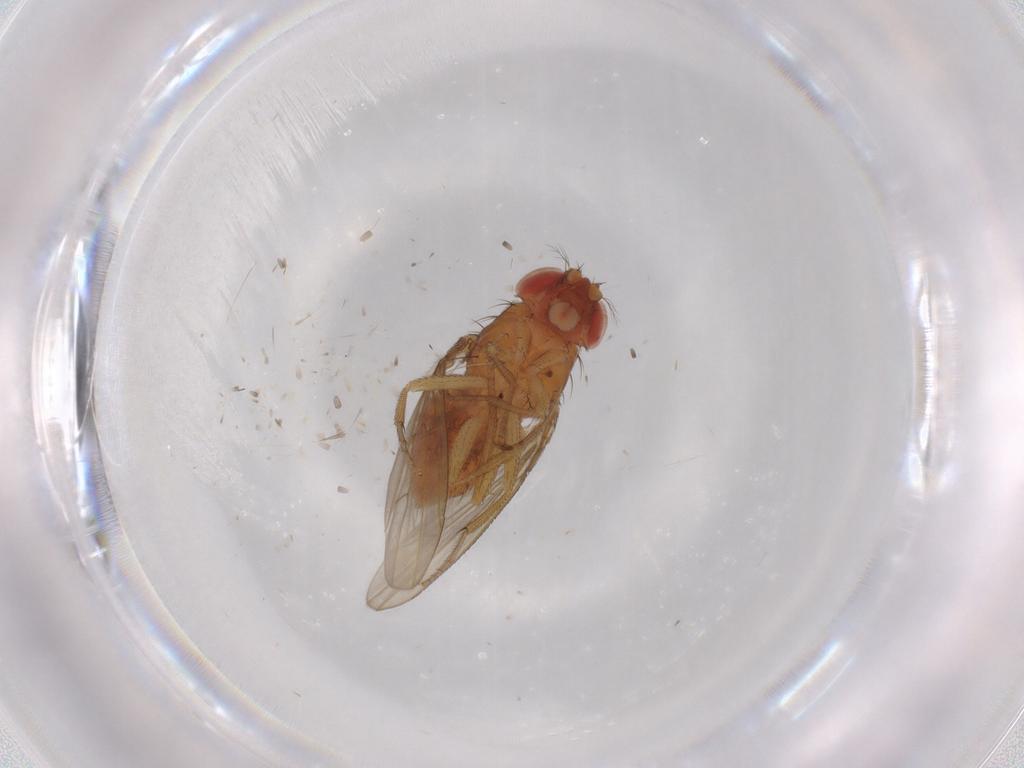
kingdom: Animalia
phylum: Arthropoda
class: Insecta
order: Diptera
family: Drosophilidae
